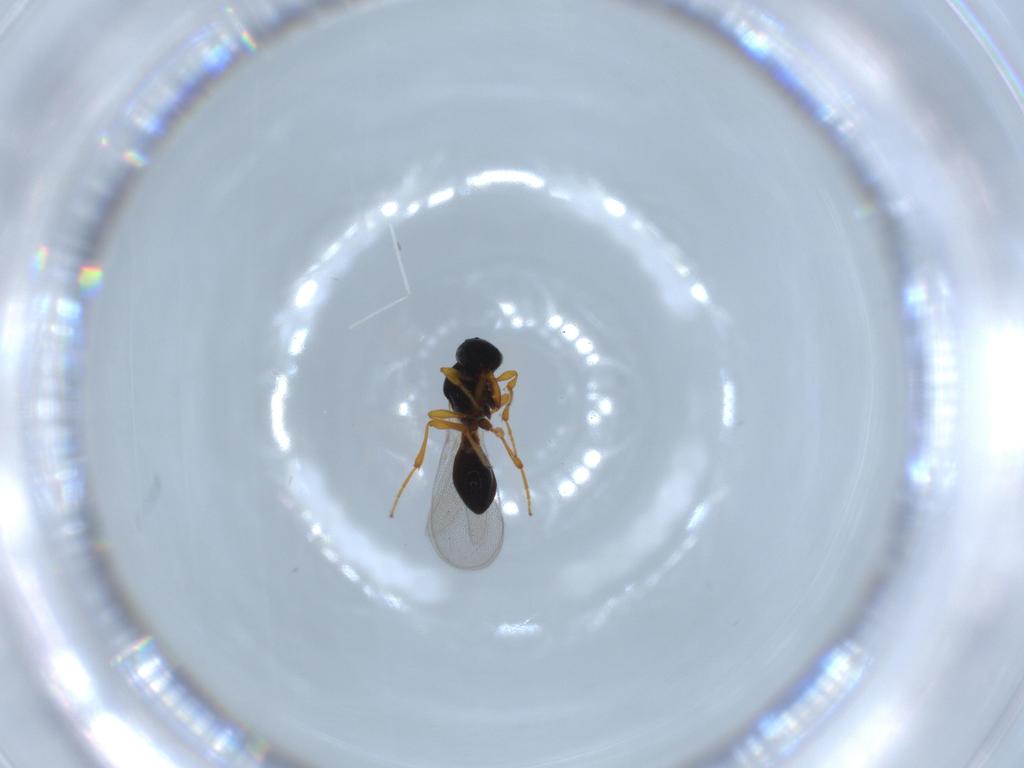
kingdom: Animalia
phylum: Arthropoda
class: Insecta
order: Hymenoptera
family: Platygastridae
